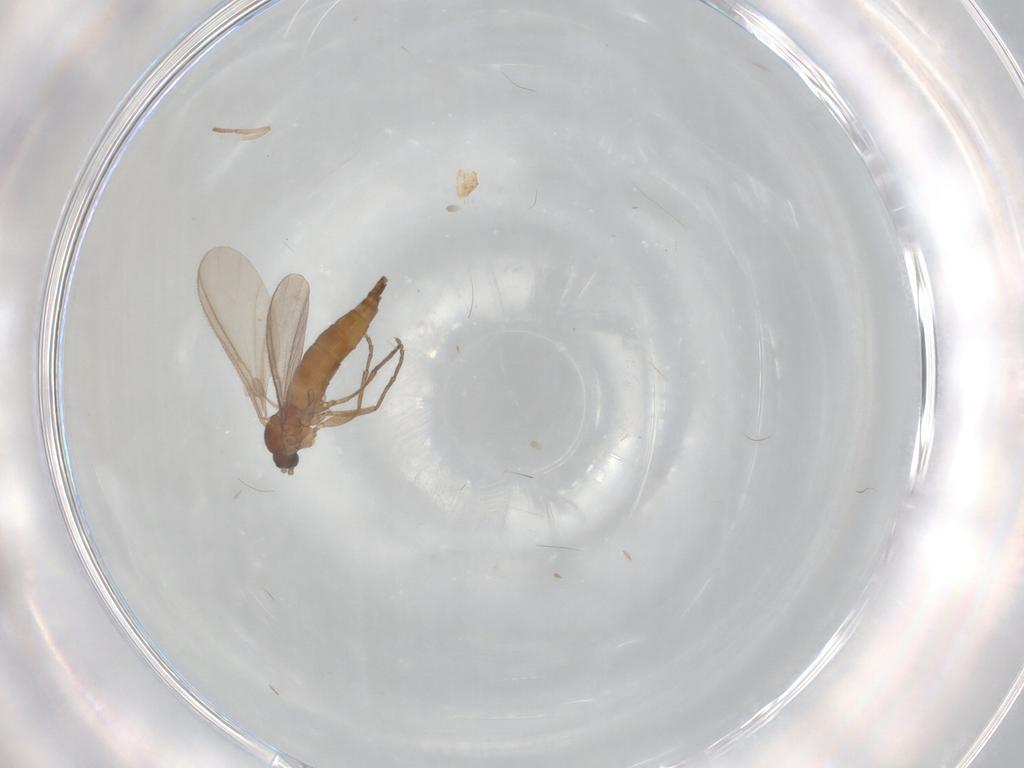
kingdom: Animalia
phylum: Arthropoda
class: Insecta
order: Diptera
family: Sciaridae
